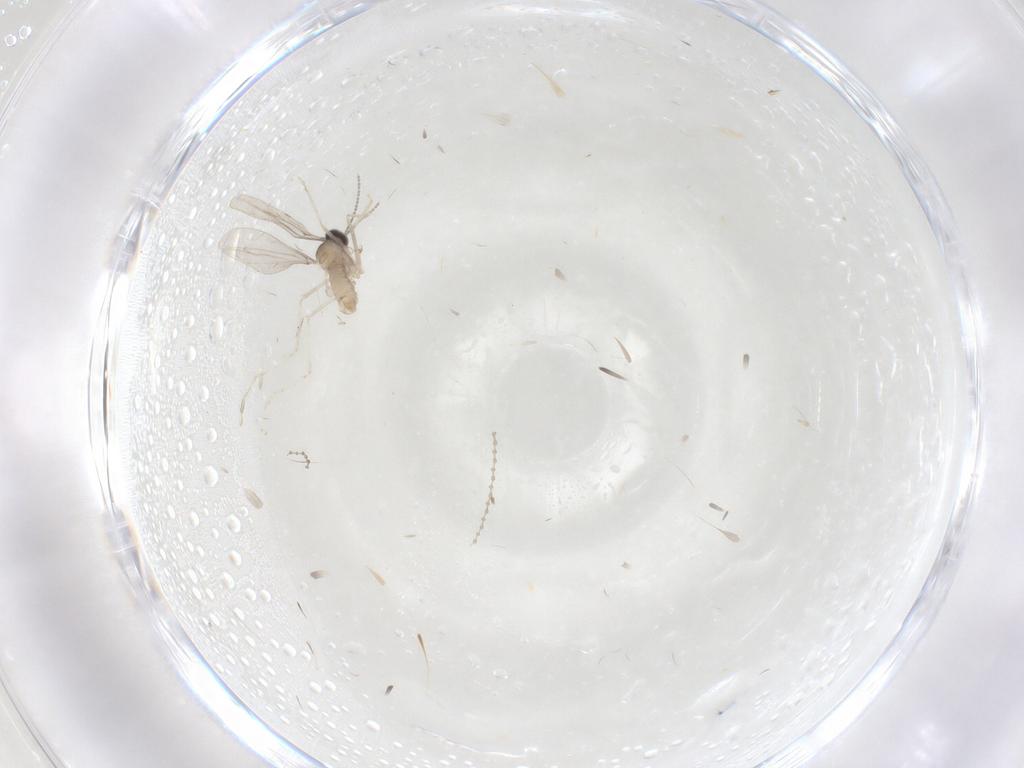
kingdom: Animalia
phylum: Arthropoda
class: Insecta
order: Diptera
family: Cecidomyiidae
